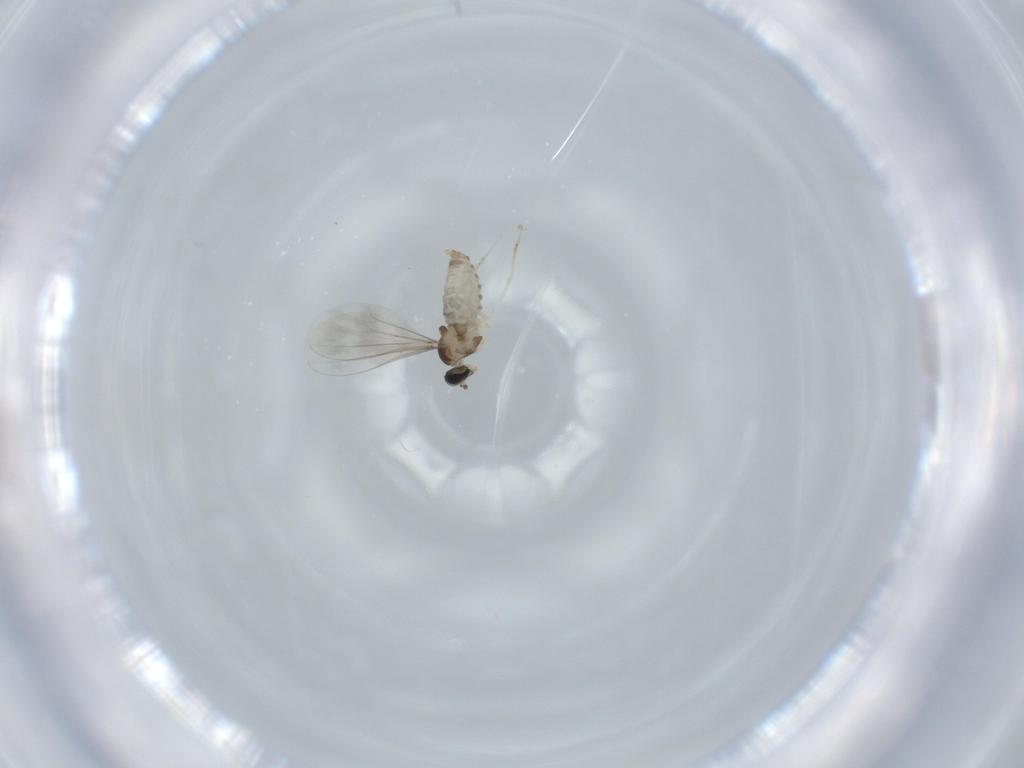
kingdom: Animalia
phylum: Arthropoda
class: Insecta
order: Diptera
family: Cecidomyiidae
